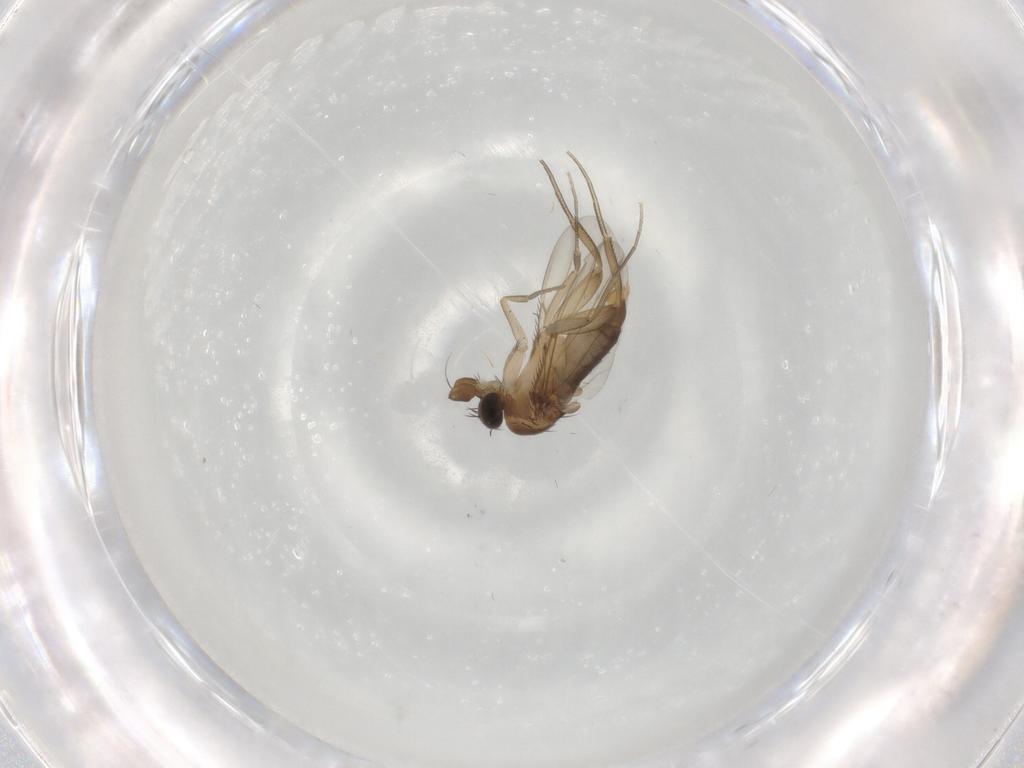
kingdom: Animalia
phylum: Arthropoda
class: Insecta
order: Diptera
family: Phoridae
